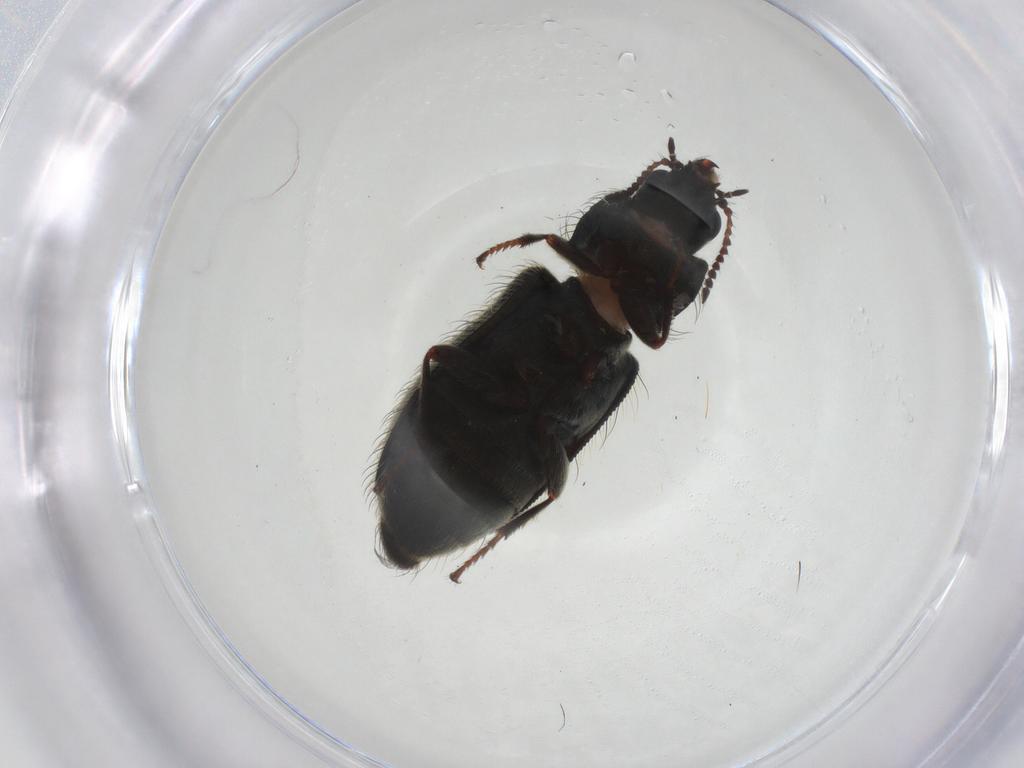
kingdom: Animalia
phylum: Arthropoda
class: Insecta
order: Coleoptera
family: Melyridae
